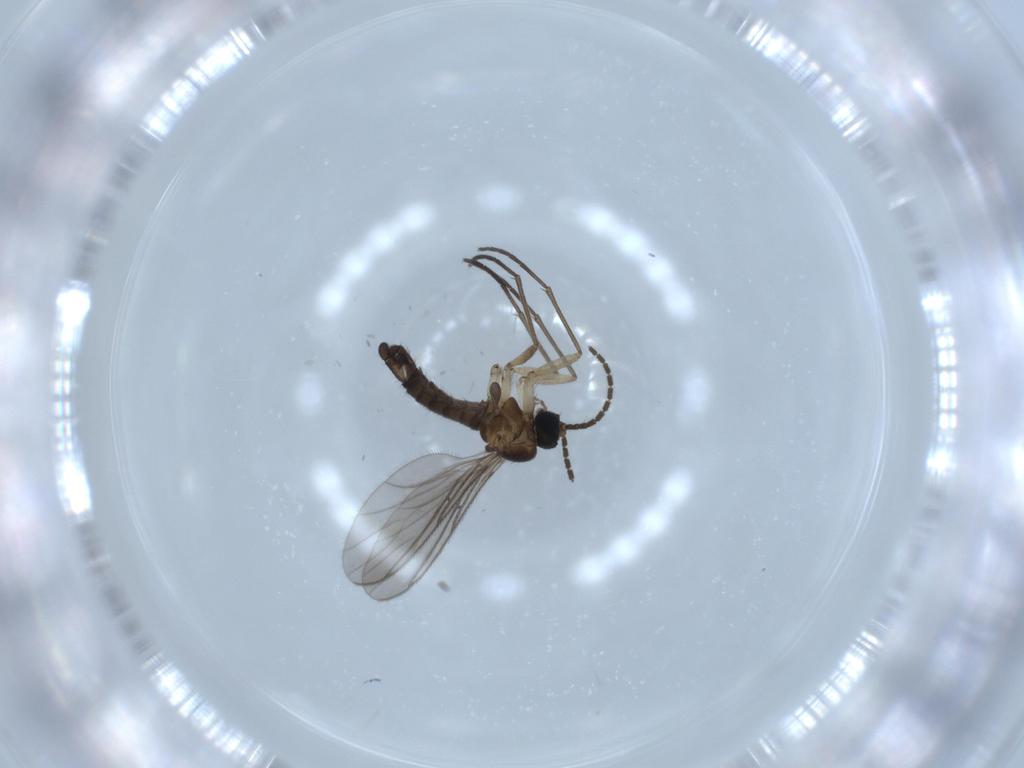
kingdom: Animalia
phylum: Arthropoda
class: Insecta
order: Diptera
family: Sciaridae
